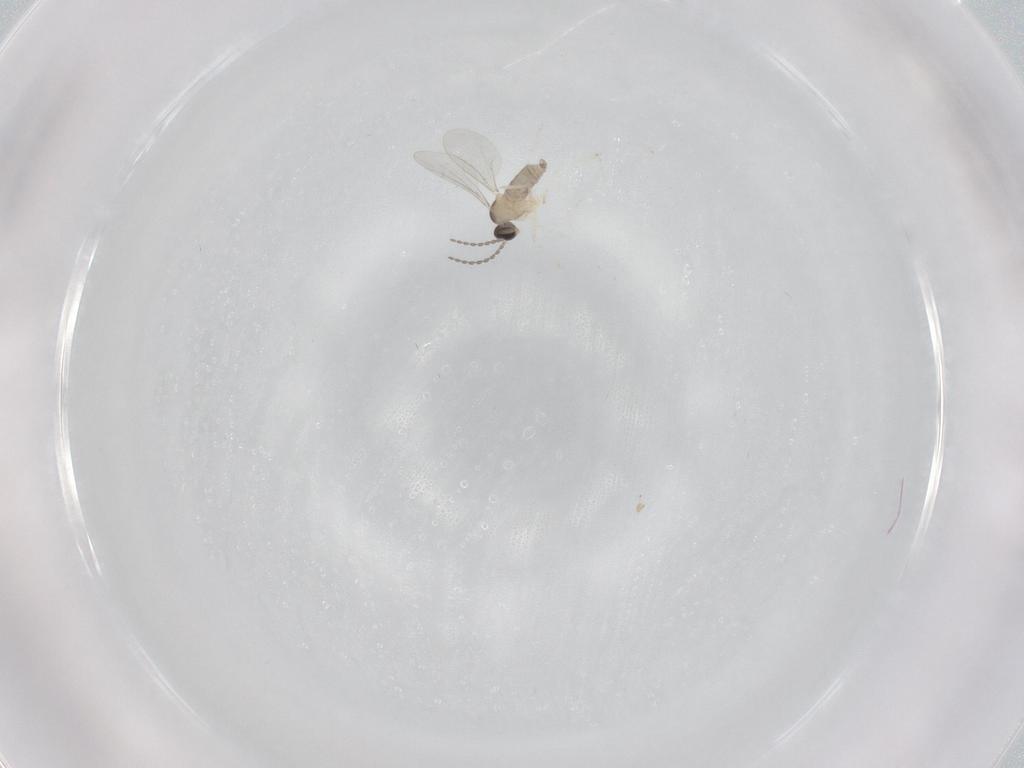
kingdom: Animalia
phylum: Arthropoda
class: Insecta
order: Diptera
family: Cecidomyiidae
